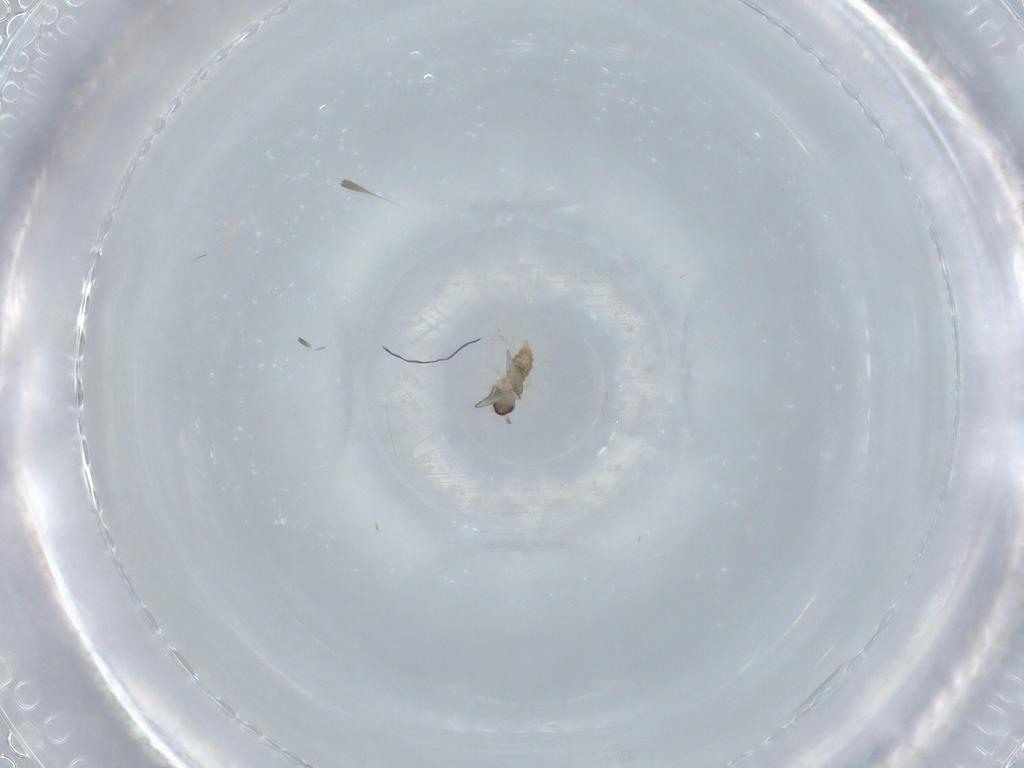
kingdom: Animalia
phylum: Arthropoda
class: Insecta
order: Diptera
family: Cecidomyiidae
